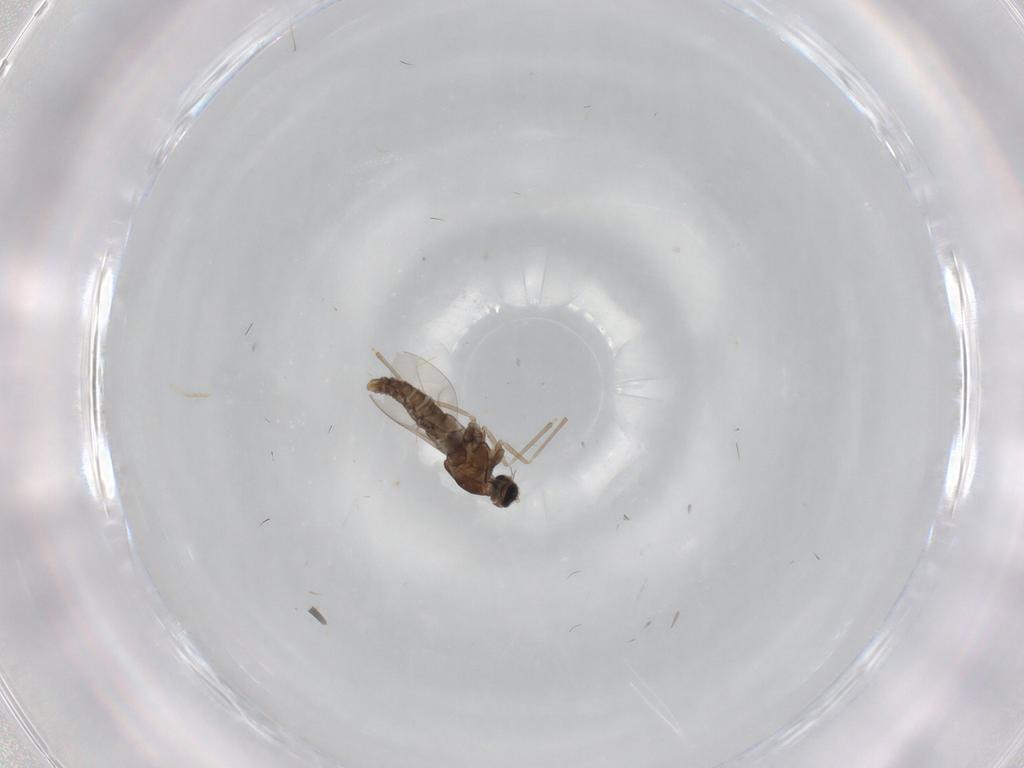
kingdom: Animalia
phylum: Arthropoda
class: Insecta
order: Diptera
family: Cecidomyiidae
